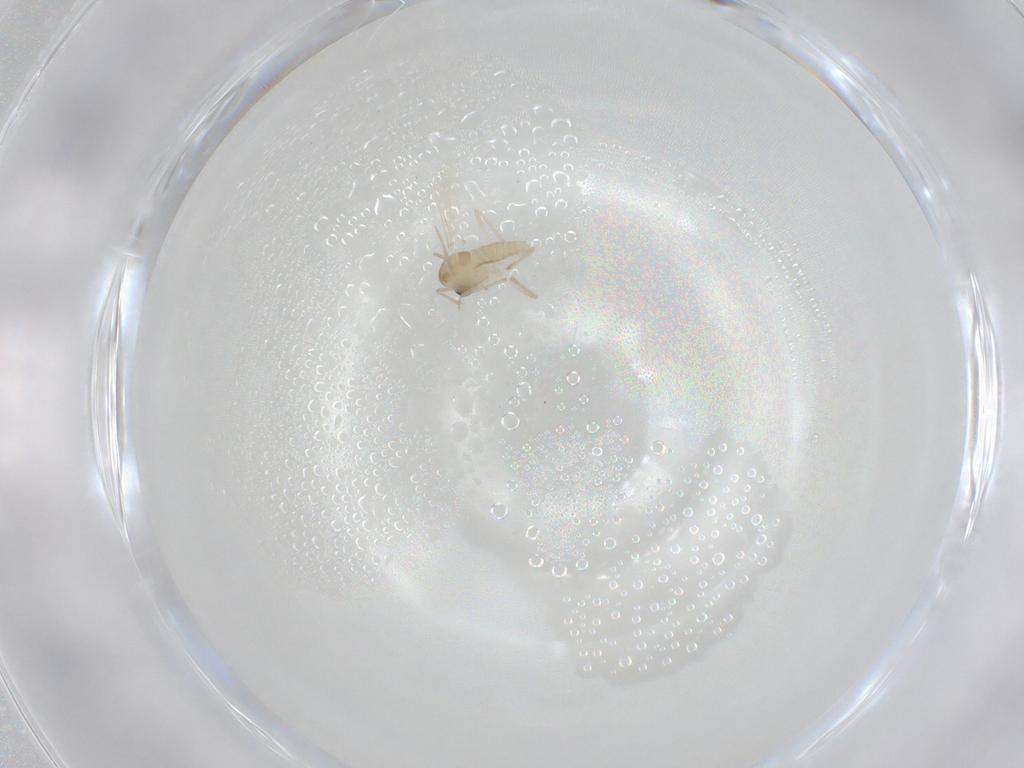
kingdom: Animalia
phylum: Arthropoda
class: Insecta
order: Diptera
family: Chironomidae
